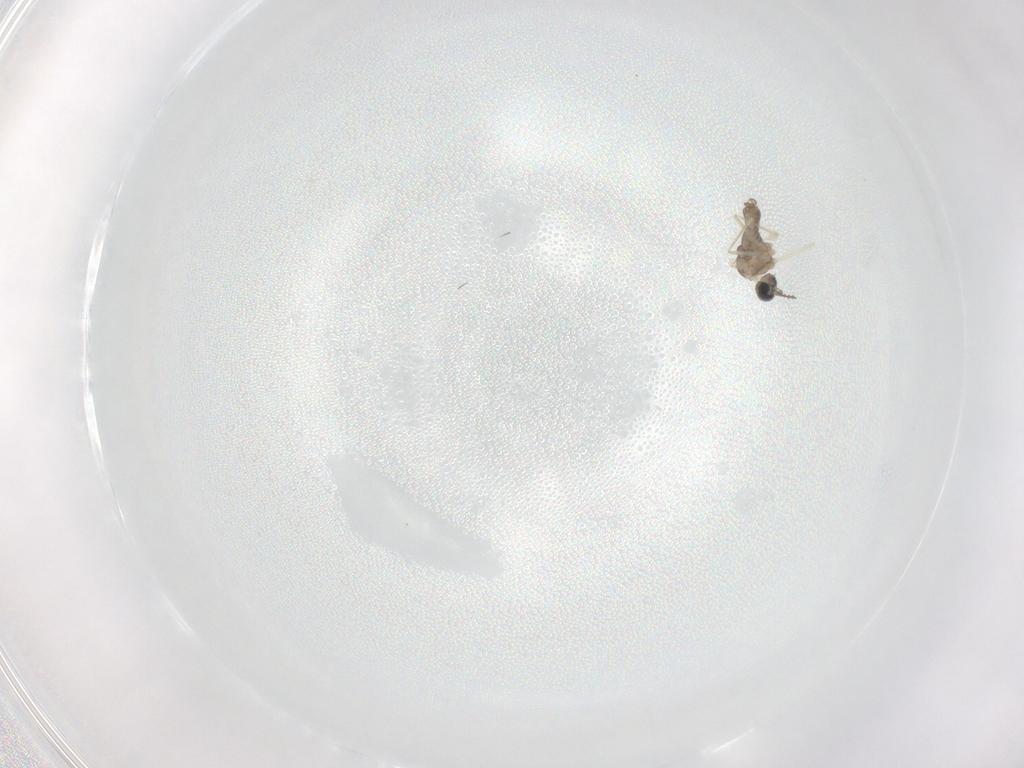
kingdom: Animalia
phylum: Arthropoda
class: Insecta
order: Diptera
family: Cecidomyiidae
